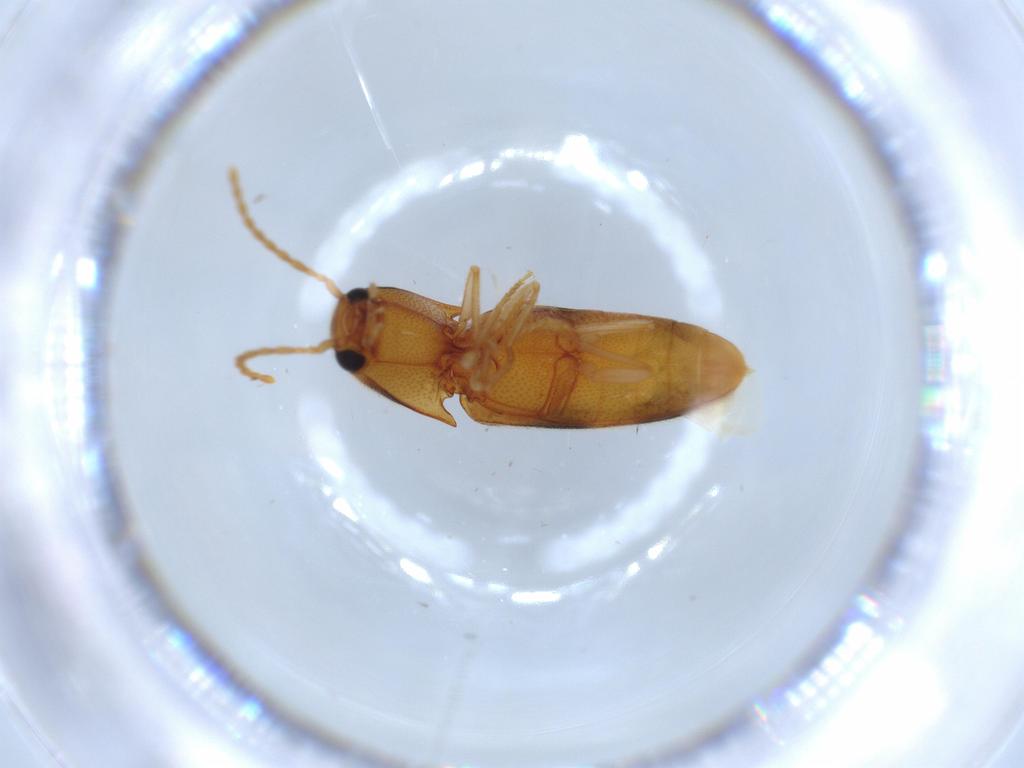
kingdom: Animalia
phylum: Arthropoda
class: Insecta
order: Coleoptera
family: Elateridae
